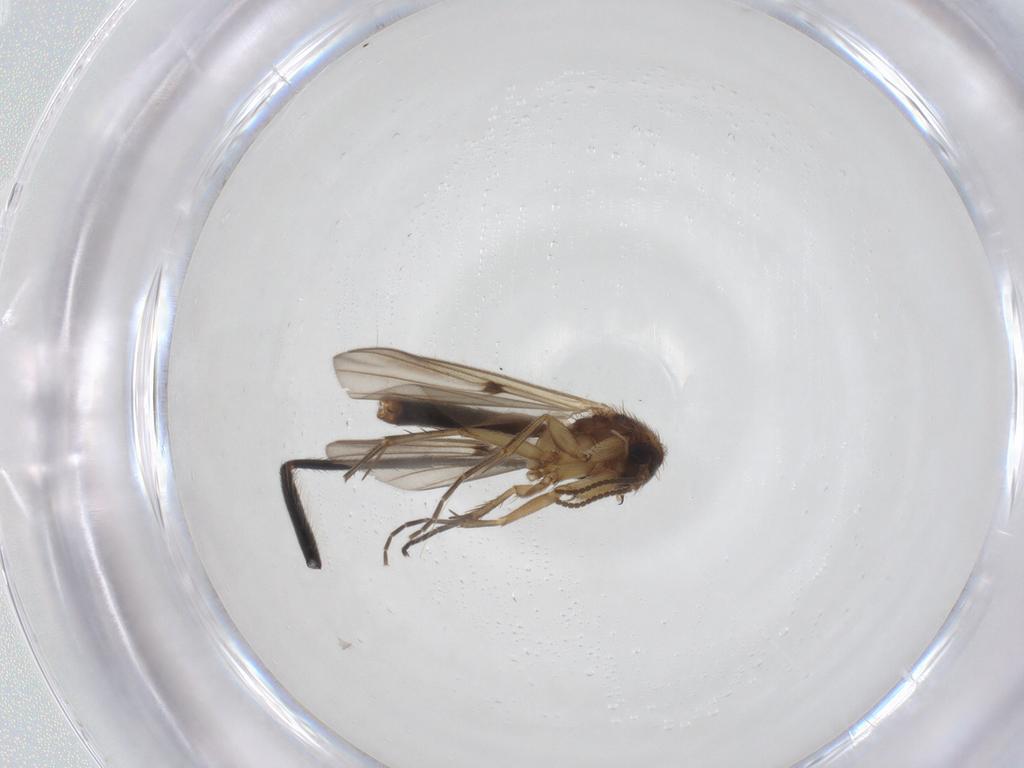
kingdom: Animalia
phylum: Arthropoda
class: Insecta
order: Diptera
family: Bombyliidae
